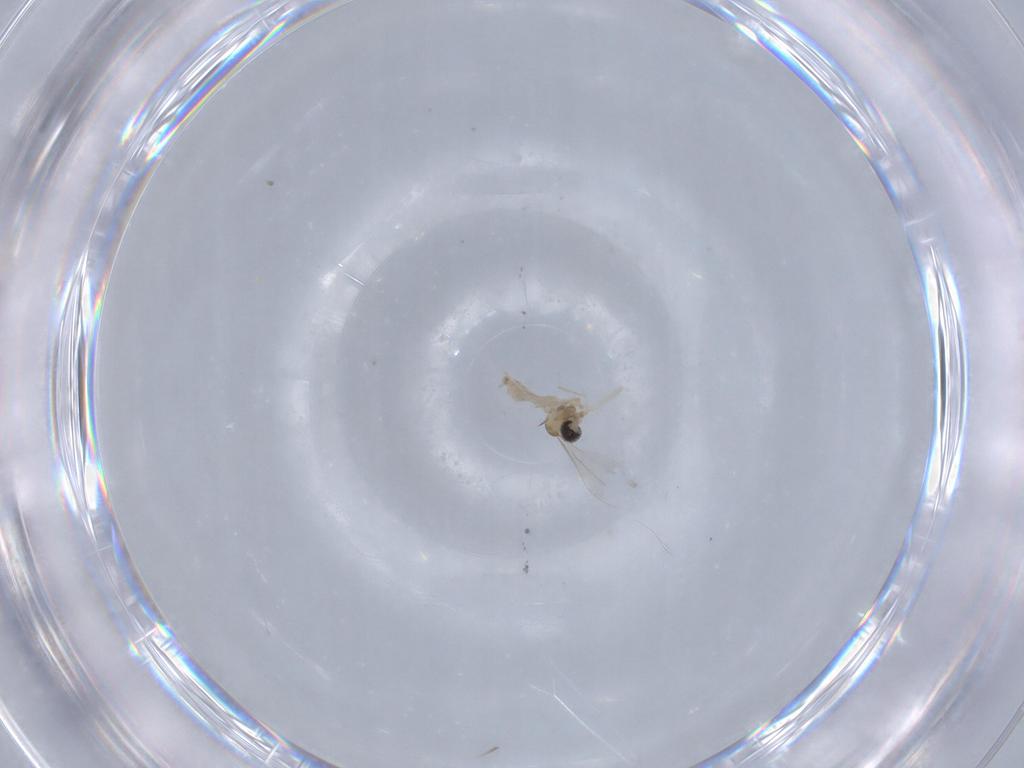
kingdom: Animalia
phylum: Arthropoda
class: Insecta
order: Diptera
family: Cecidomyiidae
